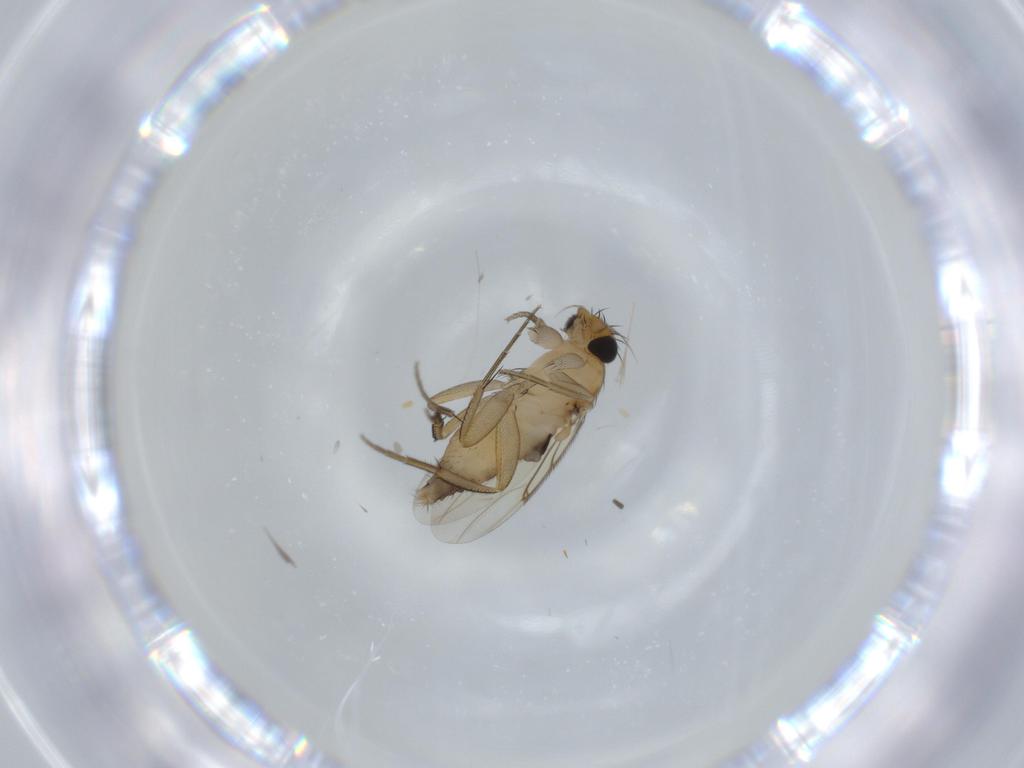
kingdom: Animalia
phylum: Arthropoda
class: Insecta
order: Diptera
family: Phoridae
